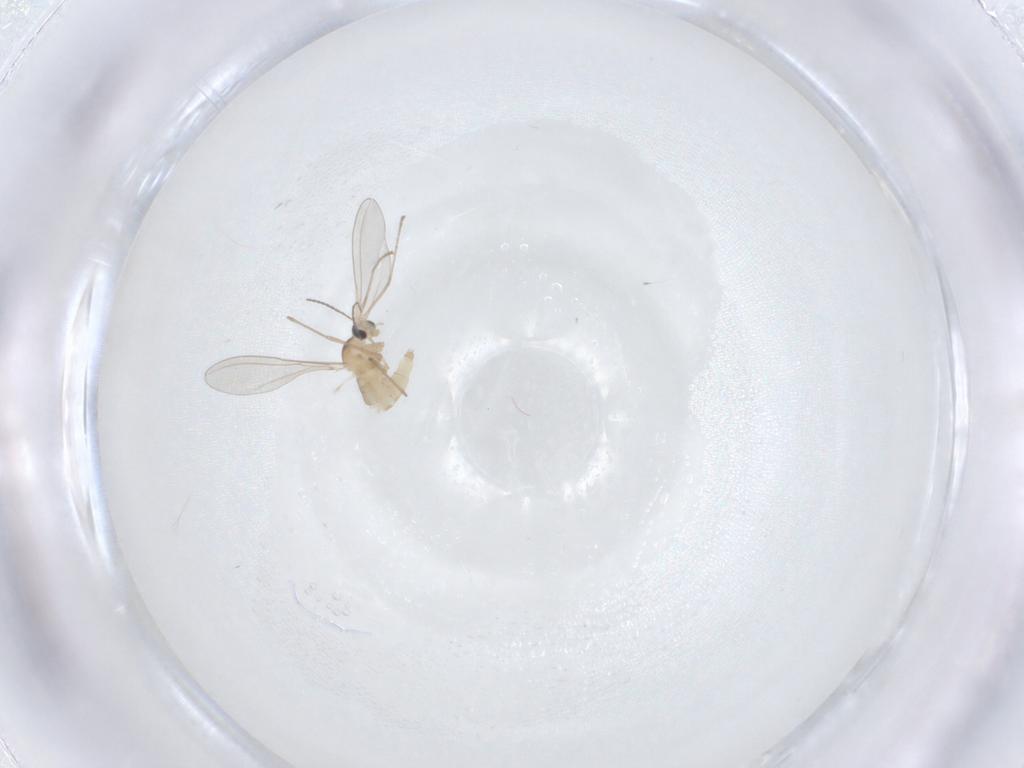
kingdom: Animalia
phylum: Arthropoda
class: Insecta
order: Diptera
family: Cecidomyiidae
